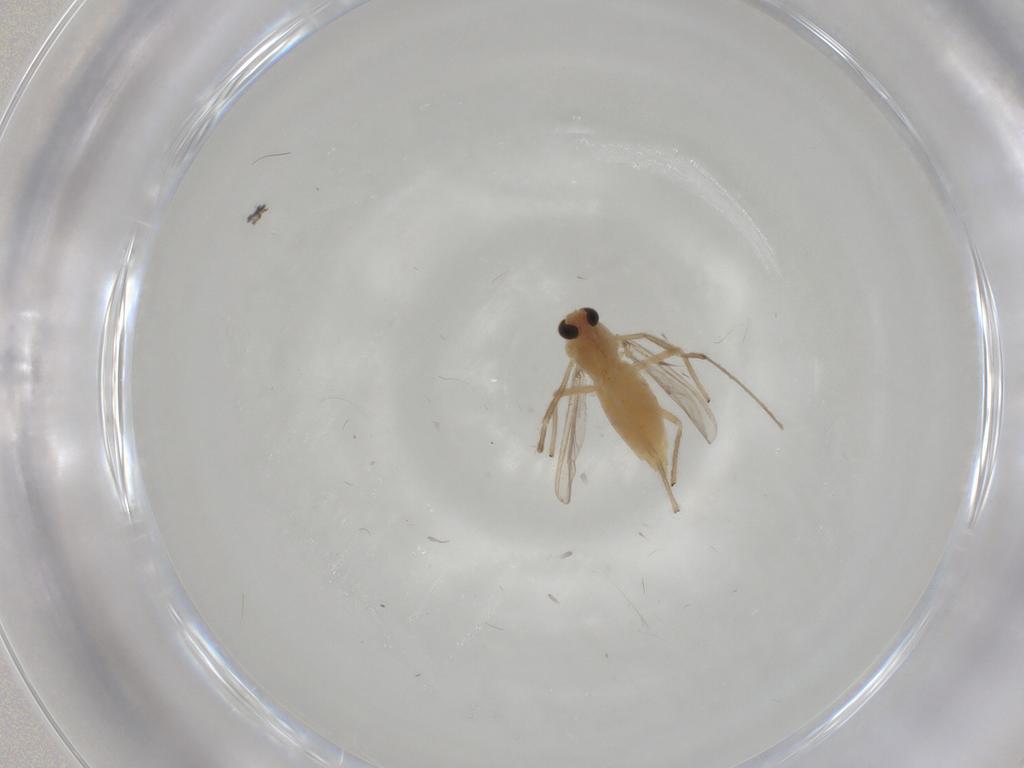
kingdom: Animalia
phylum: Arthropoda
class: Insecta
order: Diptera
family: Chironomidae
